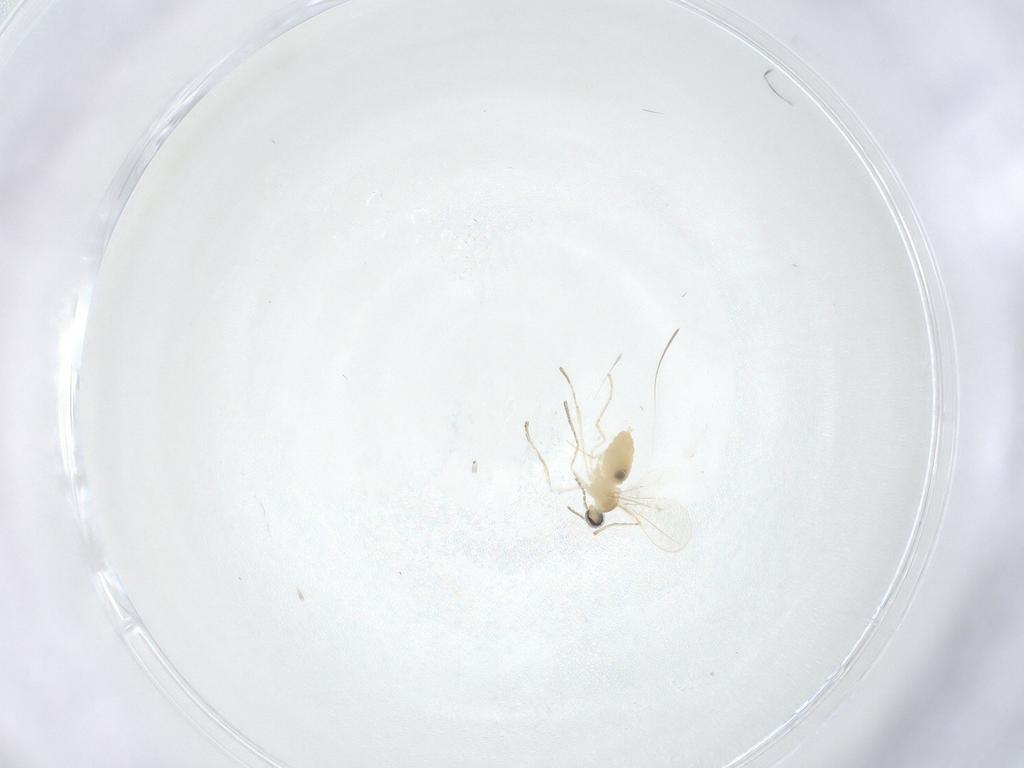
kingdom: Animalia
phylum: Arthropoda
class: Insecta
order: Diptera
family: Cecidomyiidae
